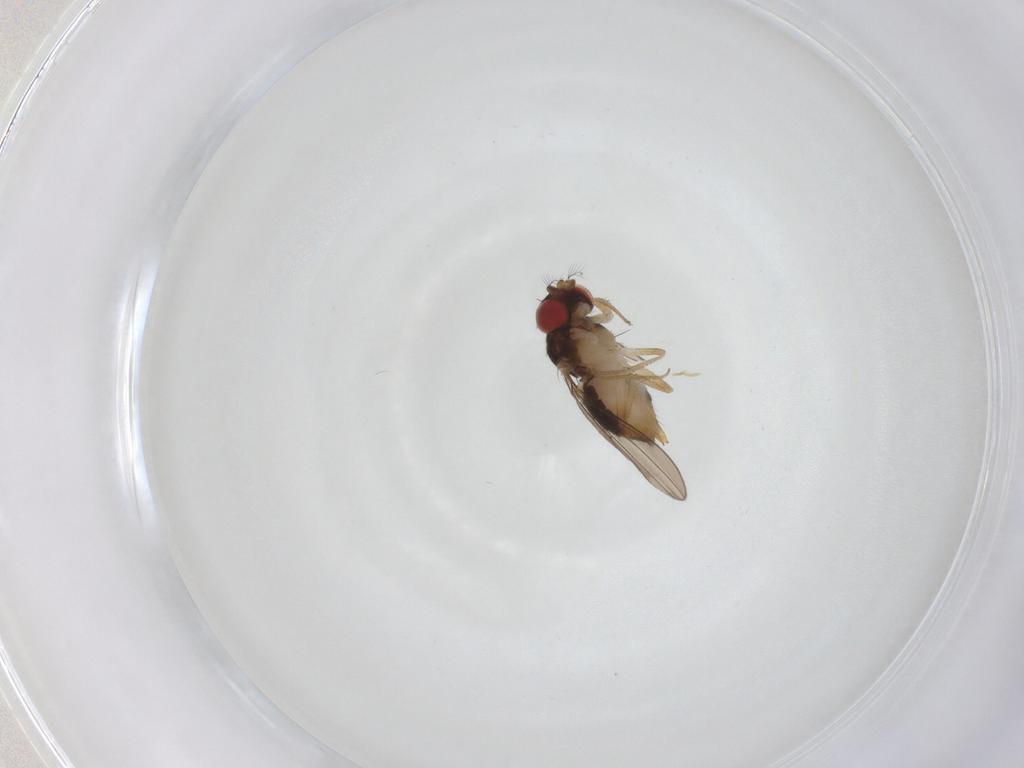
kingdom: Animalia
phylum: Arthropoda
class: Insecta
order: Diptera
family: Drosophilidae
